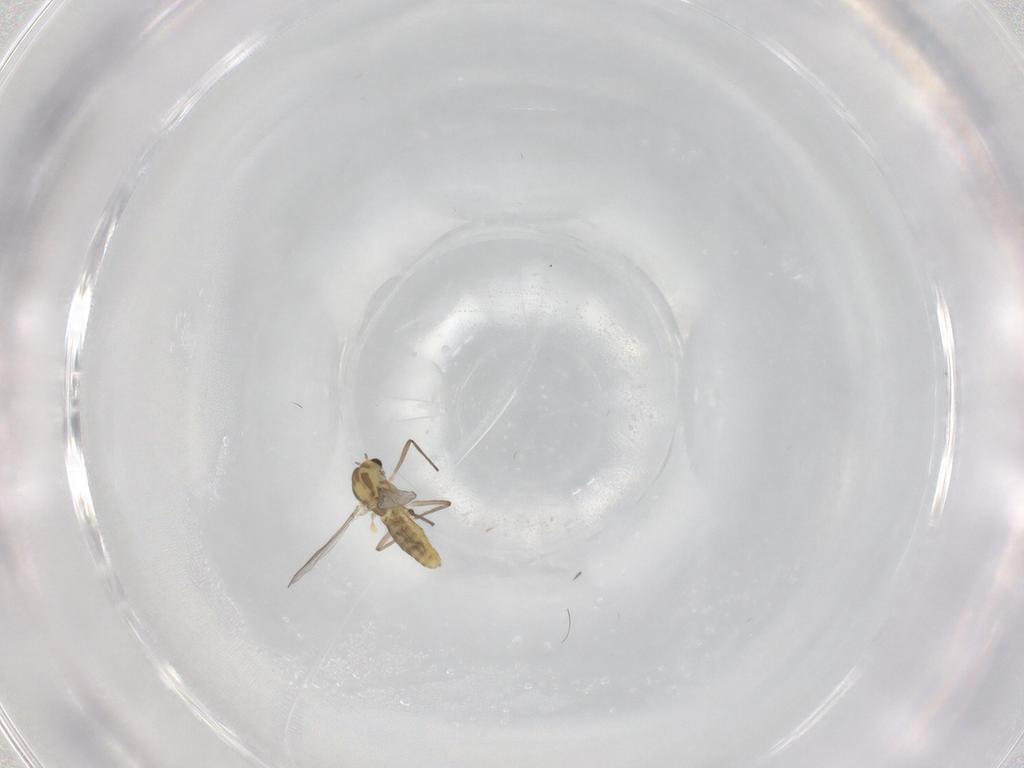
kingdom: Animalia
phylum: Arthropoda
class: Insecta
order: Diptera
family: Chironomidae
